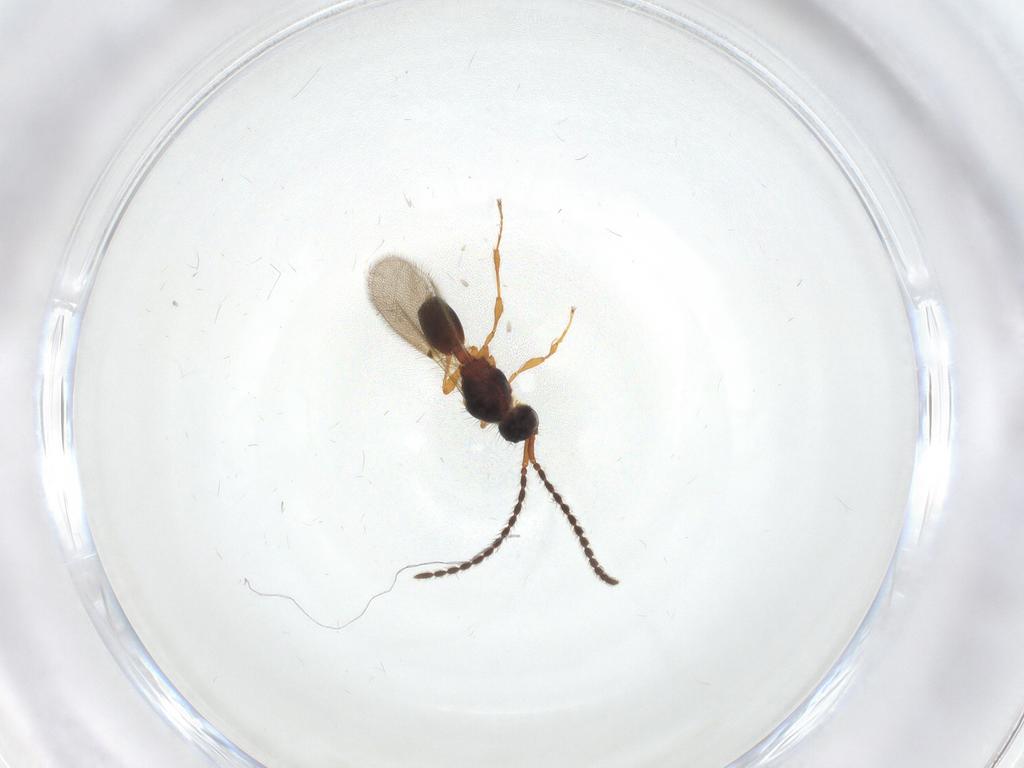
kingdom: Animalia
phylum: Arthropoda
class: Insecta
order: Hymenoptera
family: Diapriidae
